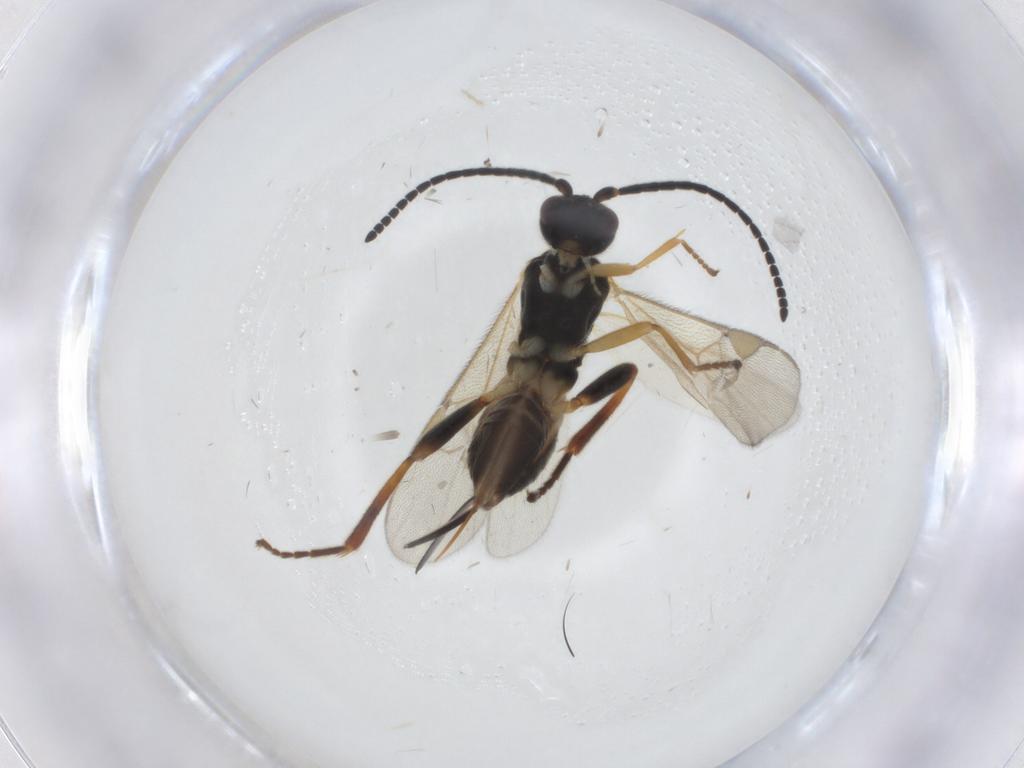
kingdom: Animalia
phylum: Arthropoda
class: Insecta
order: Hymenoptera
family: Braconidae
